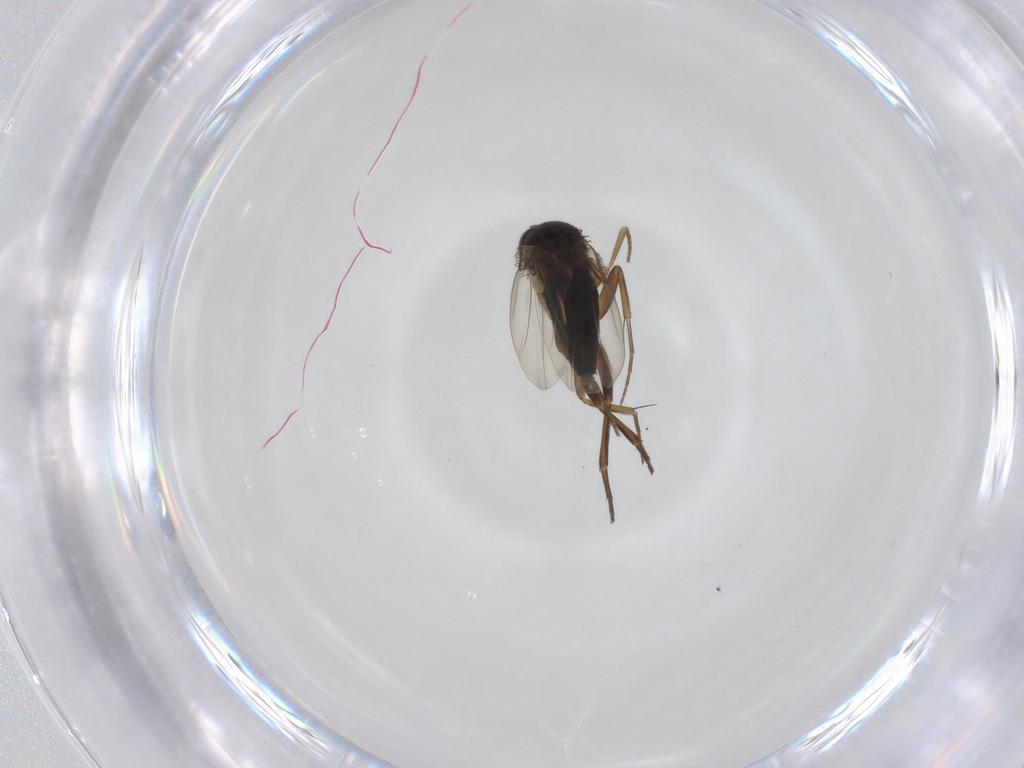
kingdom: Animalia
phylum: Arthropoda
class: Insecta
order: Diptera
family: Phoridae
